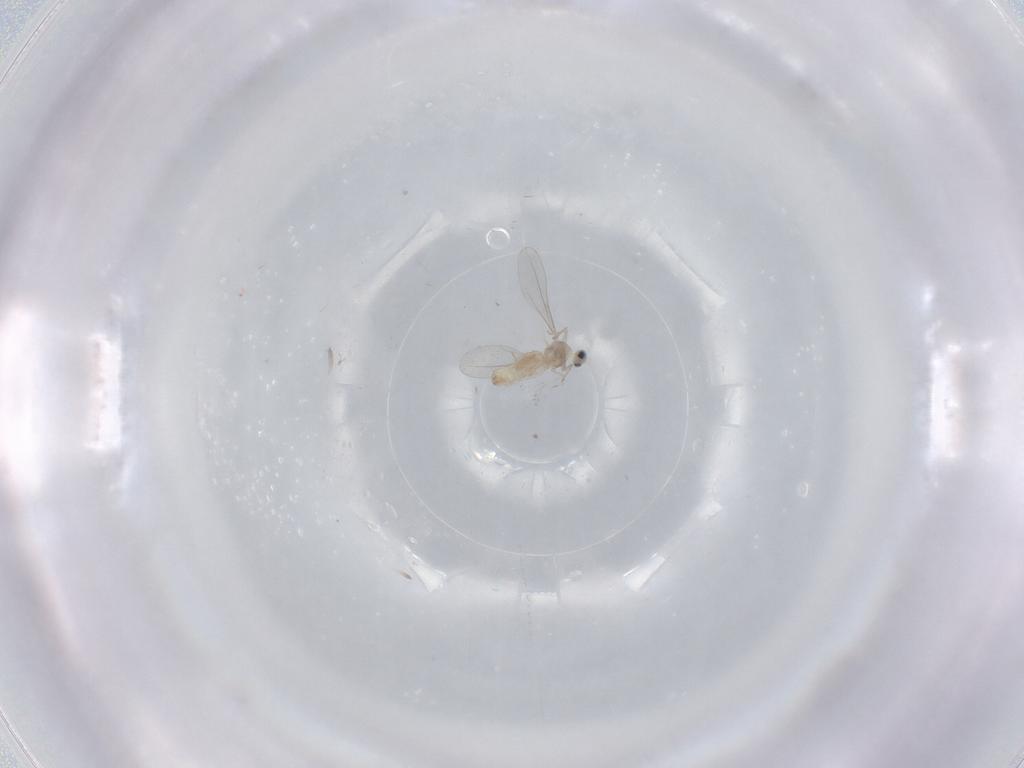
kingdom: Animalia
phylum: Arthropoda
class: Insecta
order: Diptera
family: Cecidomyiidae
